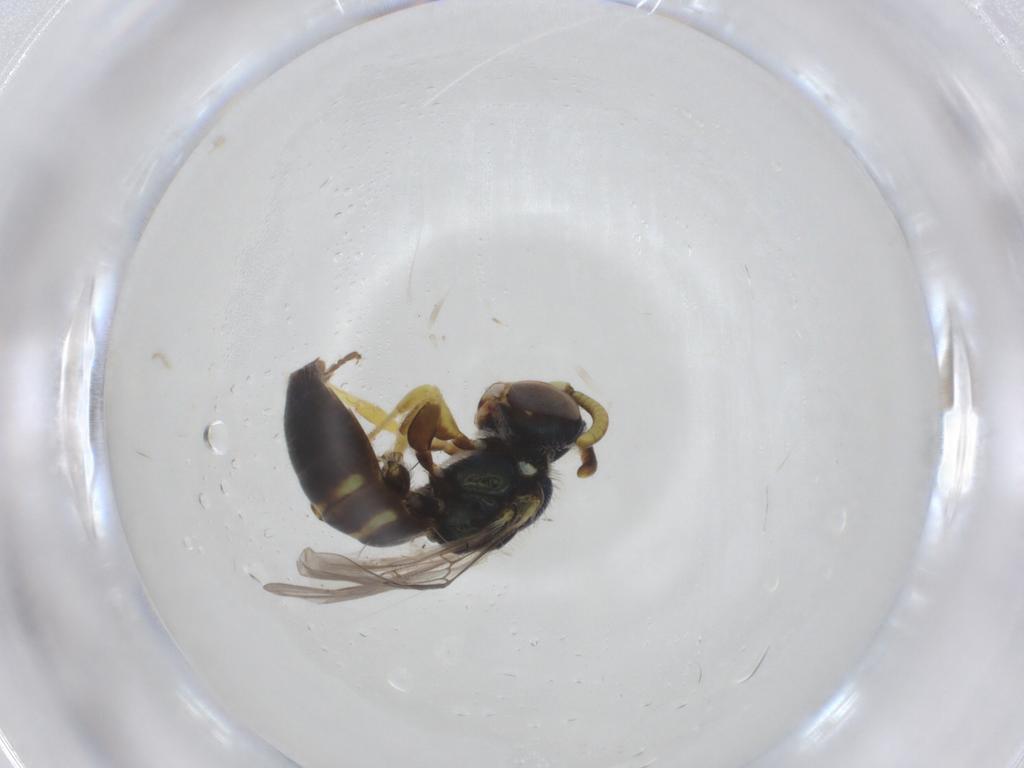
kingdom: Animalia
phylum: Arthropoda
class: Insecta
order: Hymenoptera
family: Andrenidae
